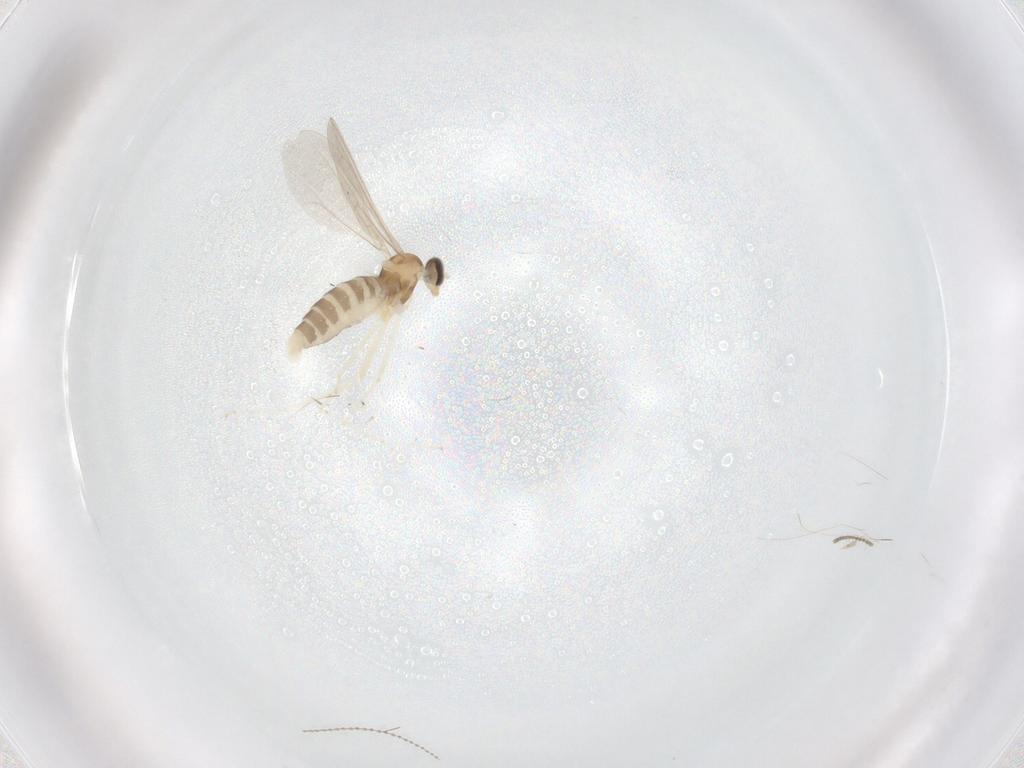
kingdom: Animalia
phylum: Arthropoda
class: Insecta
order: Diptera
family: Cecidomyiidae
